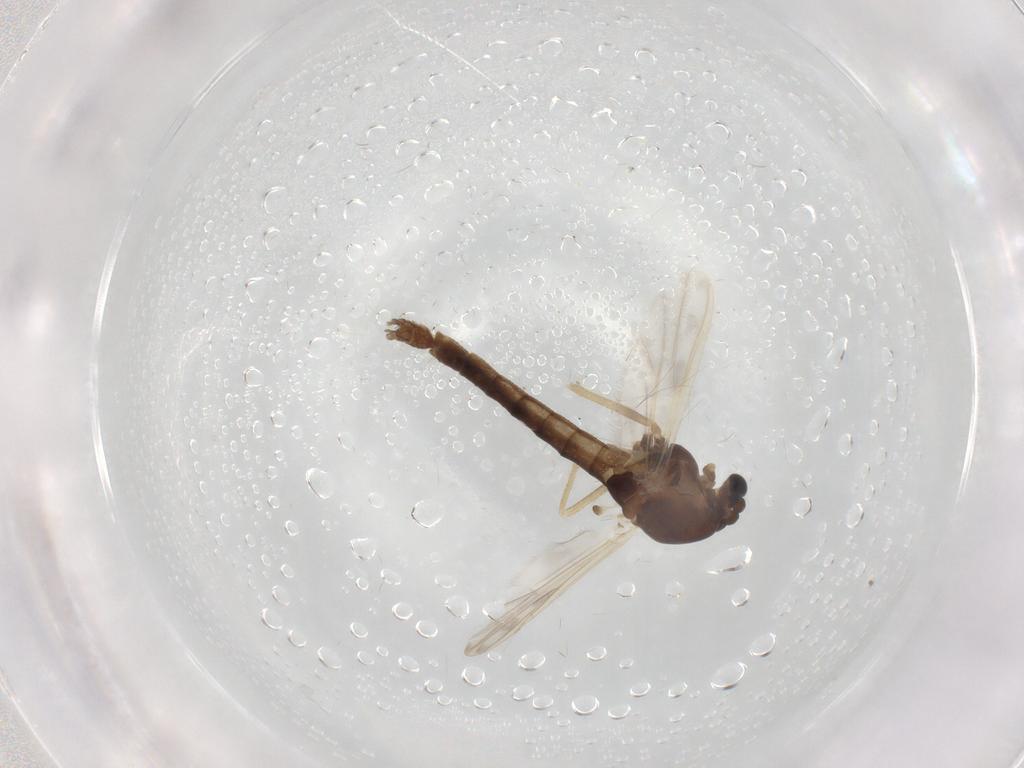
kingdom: Animalia
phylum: Arthropoda
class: Insecta
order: Diptera
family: Chironomidae
